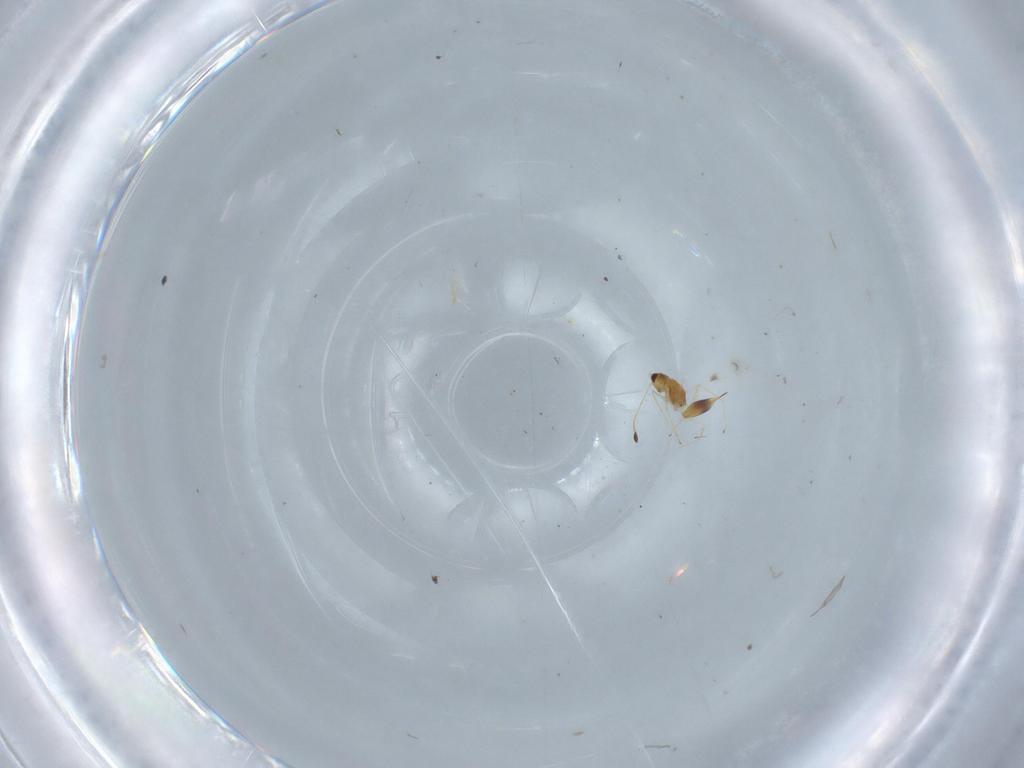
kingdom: Animalia
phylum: Arthropoda
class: Insecta
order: Hymenoptera
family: Mymaridae
